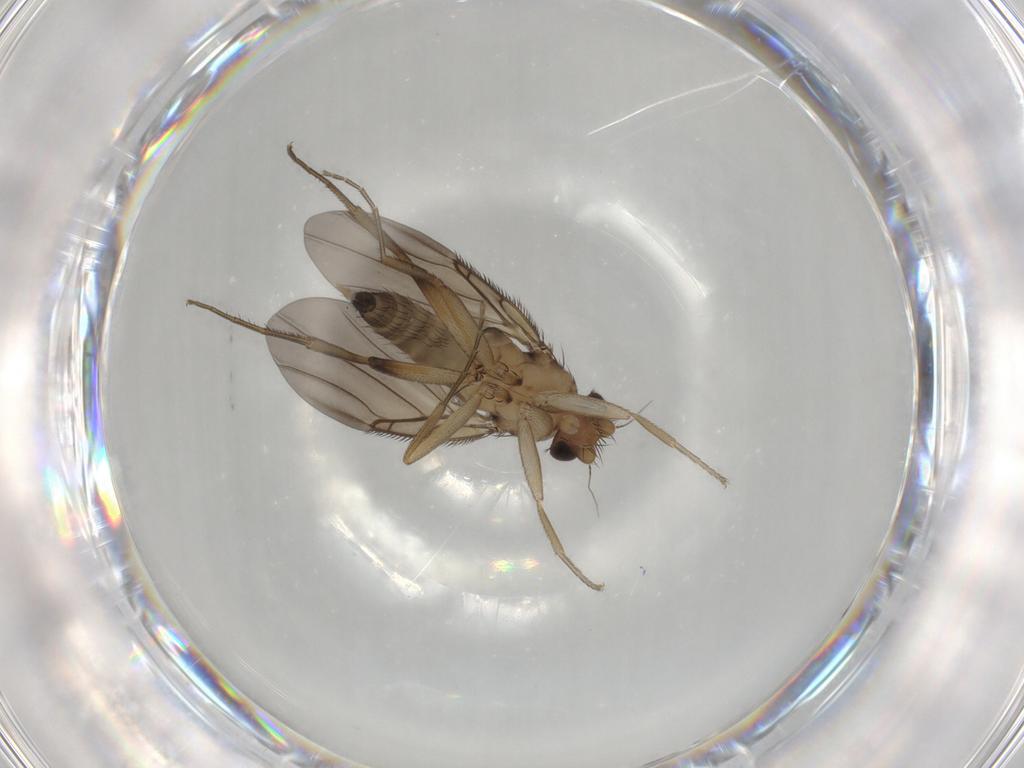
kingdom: Animalia
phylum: Arthropoda
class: Insecta
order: Diptera
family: Phoridae
